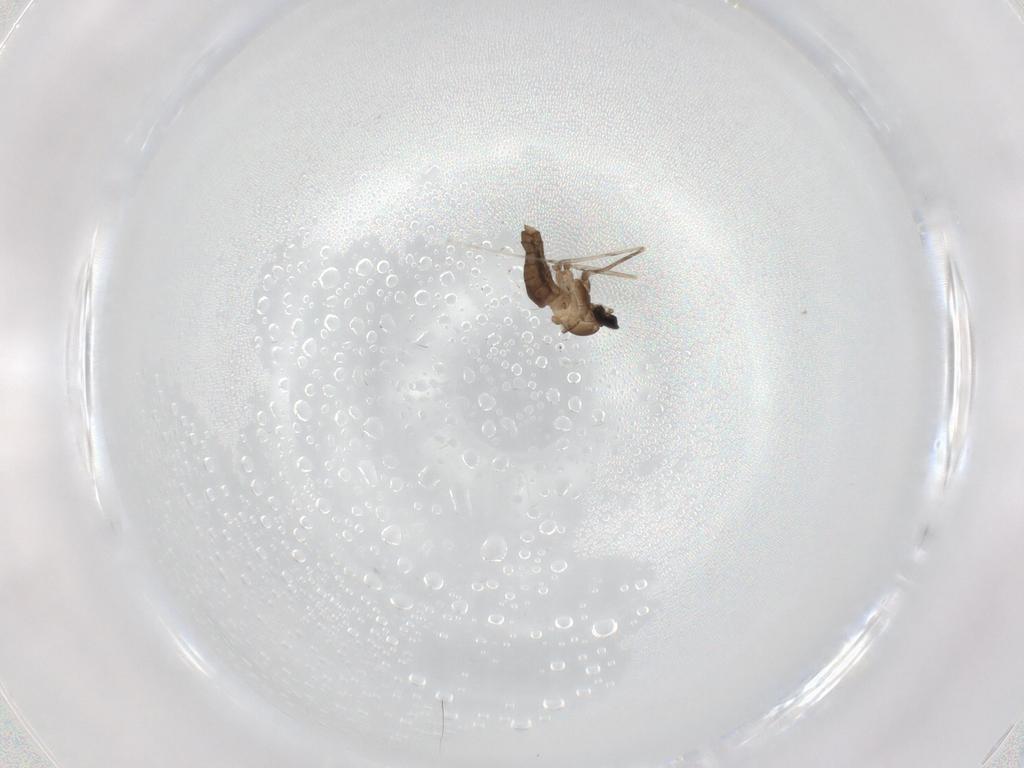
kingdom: Animalia
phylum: Arthropoda
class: Insecta
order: Diptera
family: Cecidomyiidae
